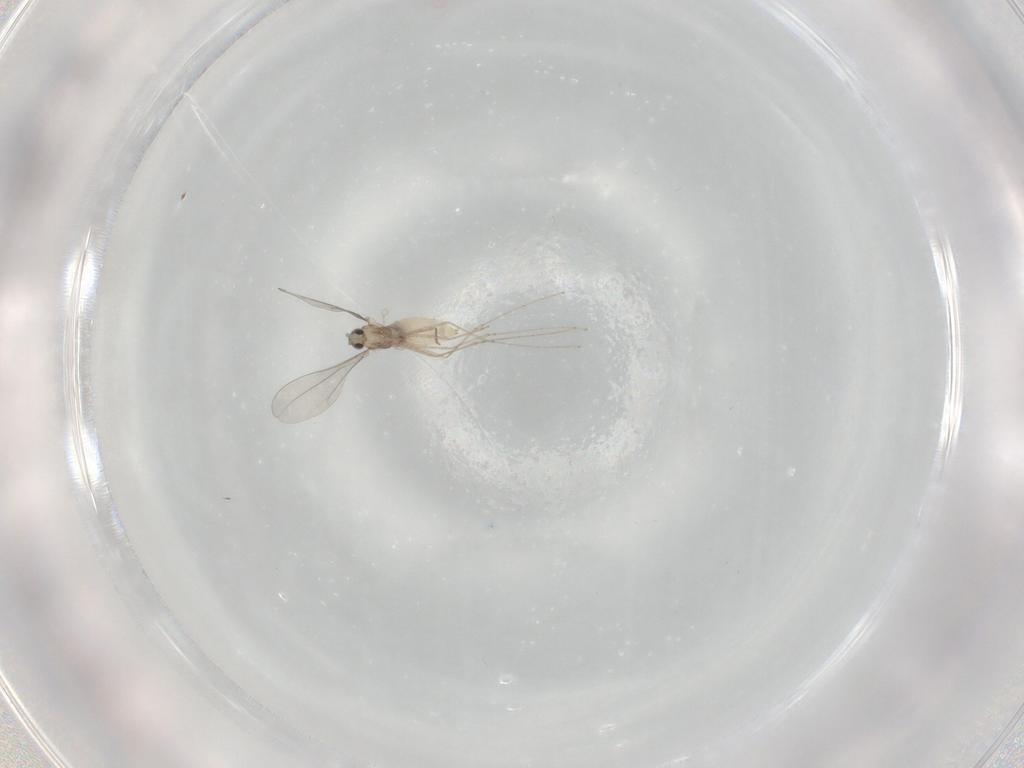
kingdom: Animalia
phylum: Arthropoda
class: Insecta
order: Diptera
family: Cecidomyiidae
